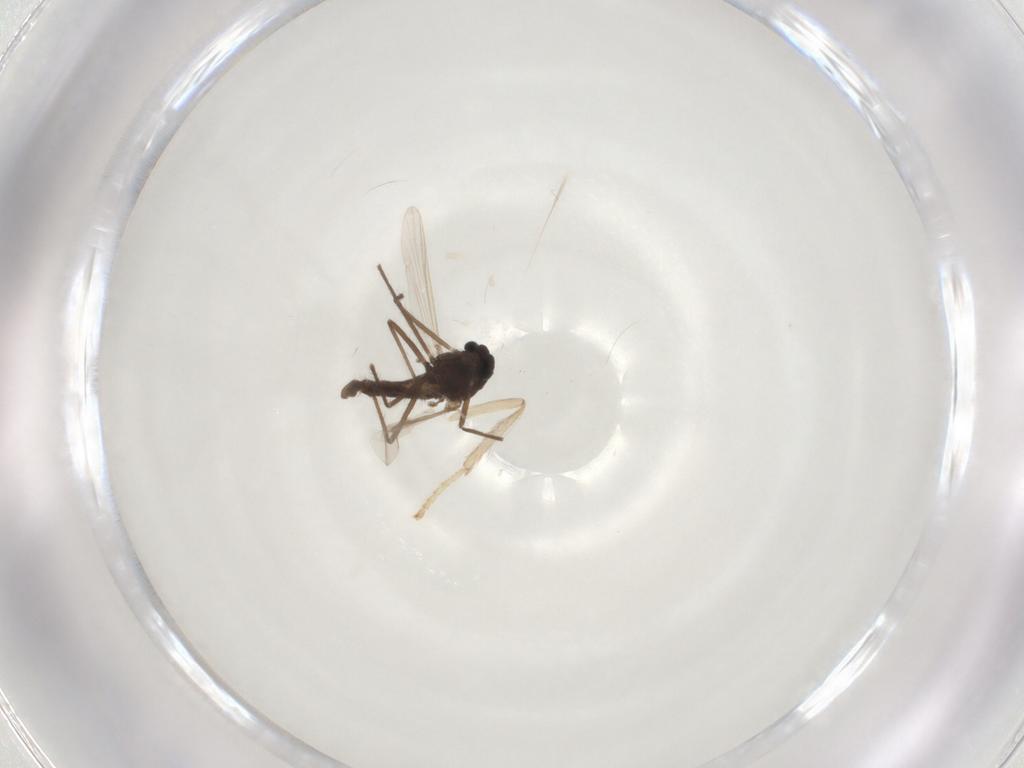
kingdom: Animalia
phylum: Arthropoda
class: Insecta
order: Diptera
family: Chironomidae
